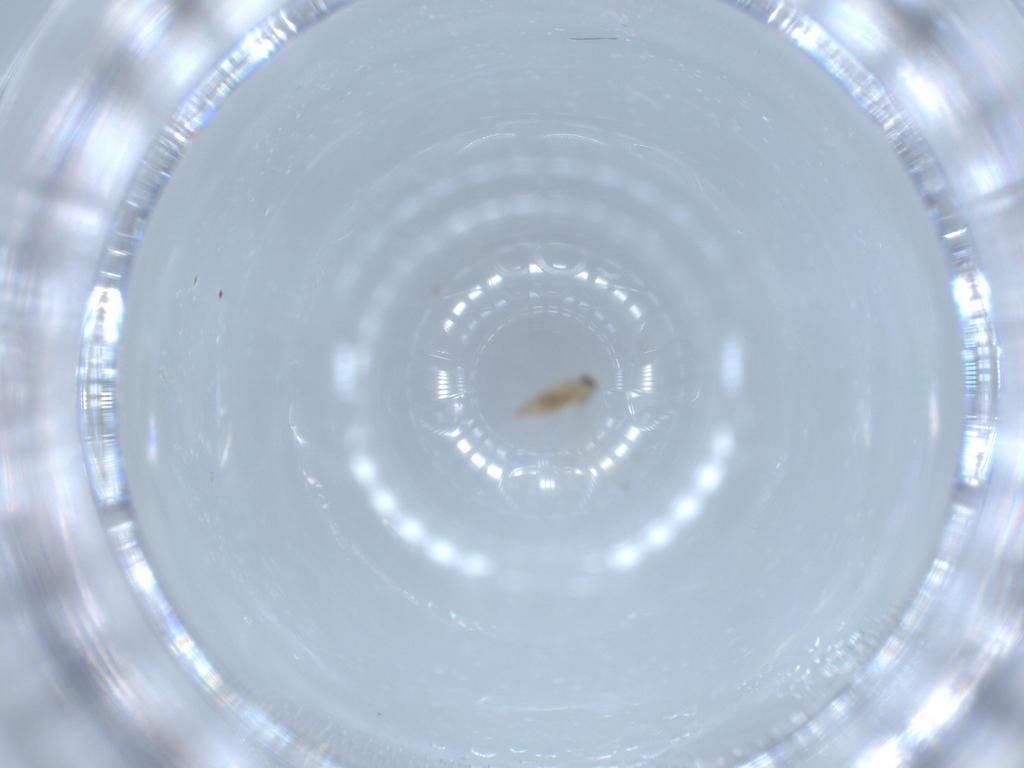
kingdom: Animalia
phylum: Arthropoda
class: Insecta
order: Diptera
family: Cecidomyiidae
